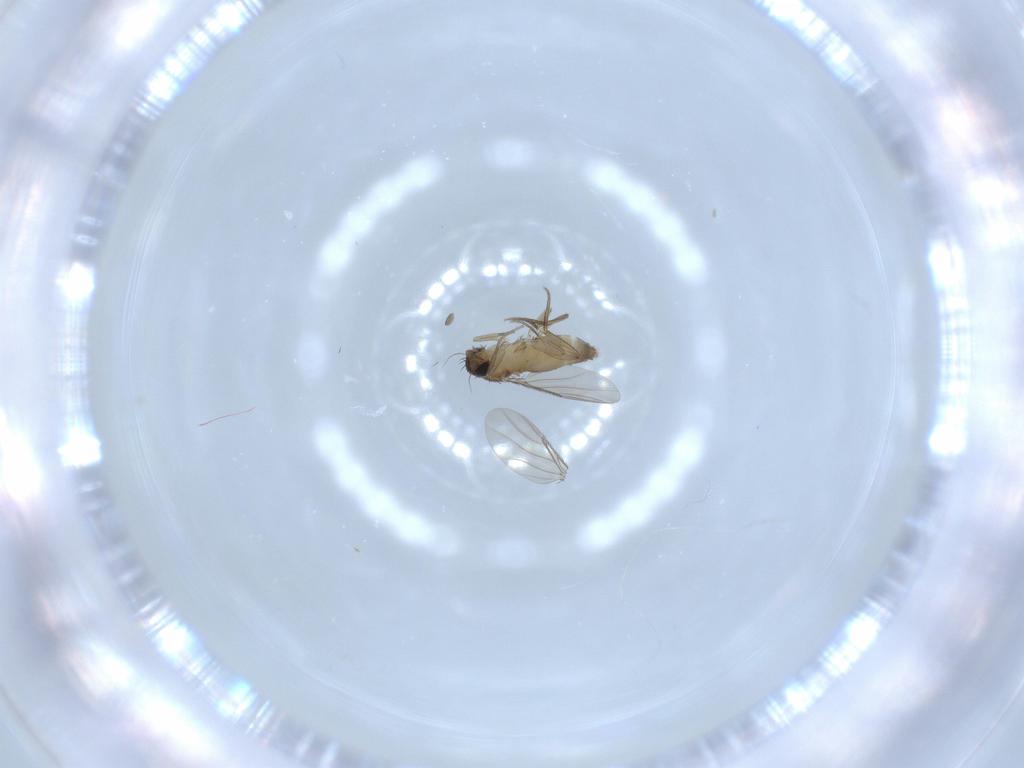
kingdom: Animalia
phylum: Arthropoda
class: Insecta
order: Diptera
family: Phoridae
